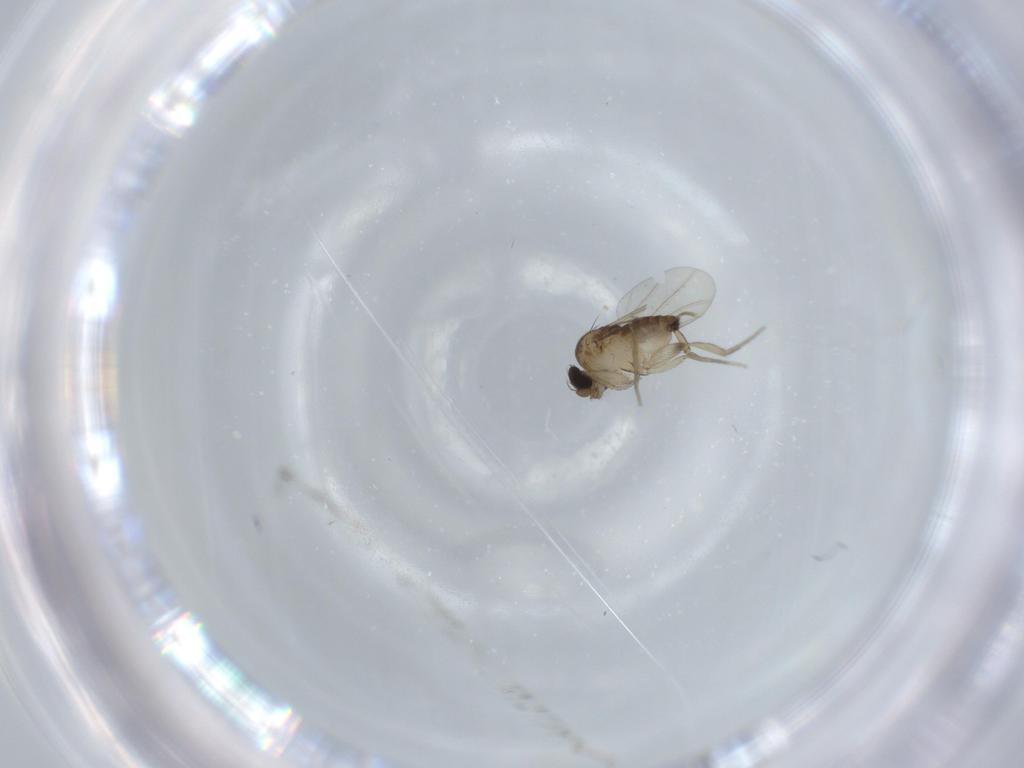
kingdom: Animalia
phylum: Arthropoda
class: Insecta
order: Diptera
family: Phoridae
